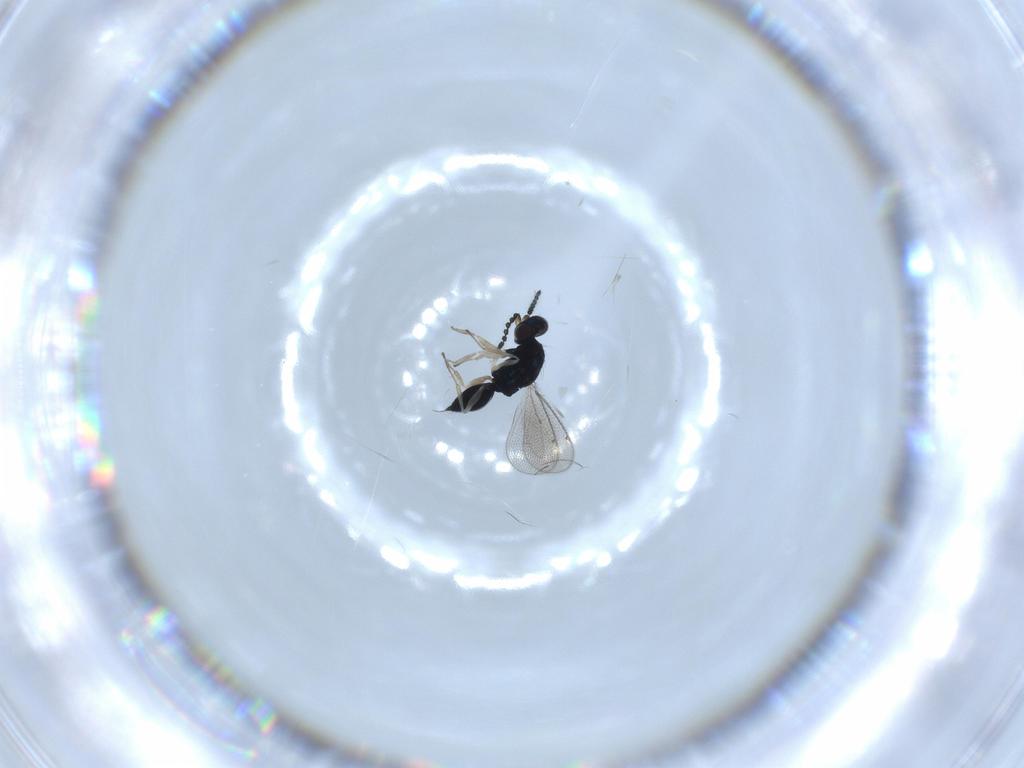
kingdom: Animalia
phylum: Arthropoda
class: Insecta
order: Hymenoptera
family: Eulophidae
